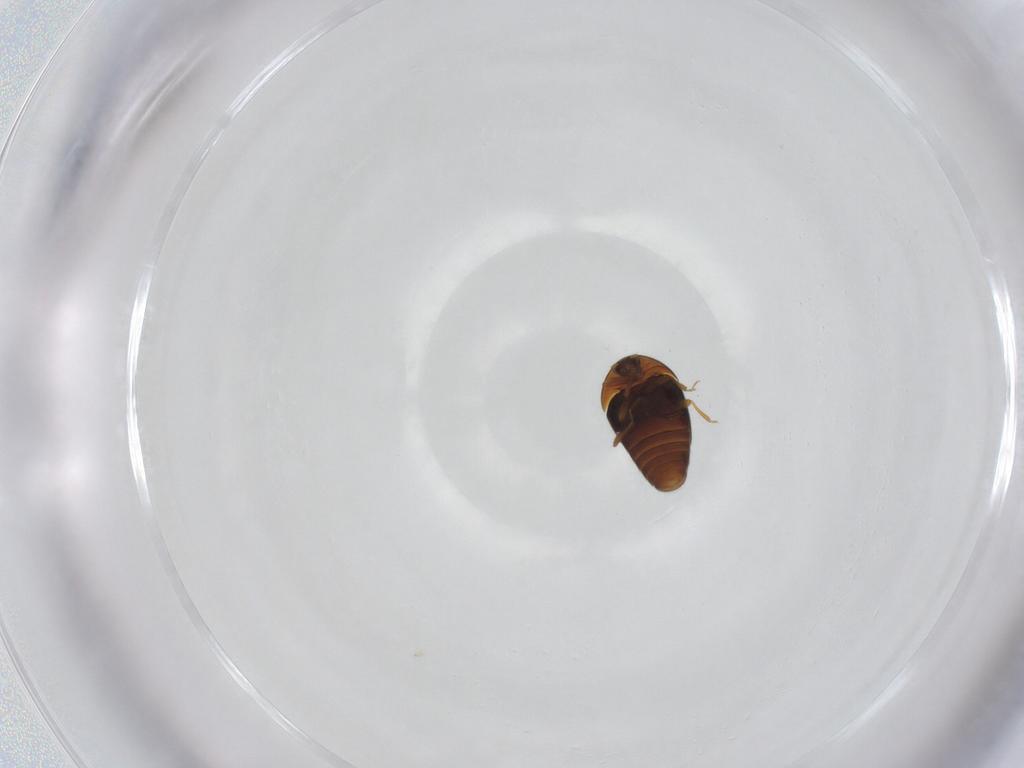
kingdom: Animalia
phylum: Arthropoda
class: Insecta
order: Coleoptera
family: Corylophidae
